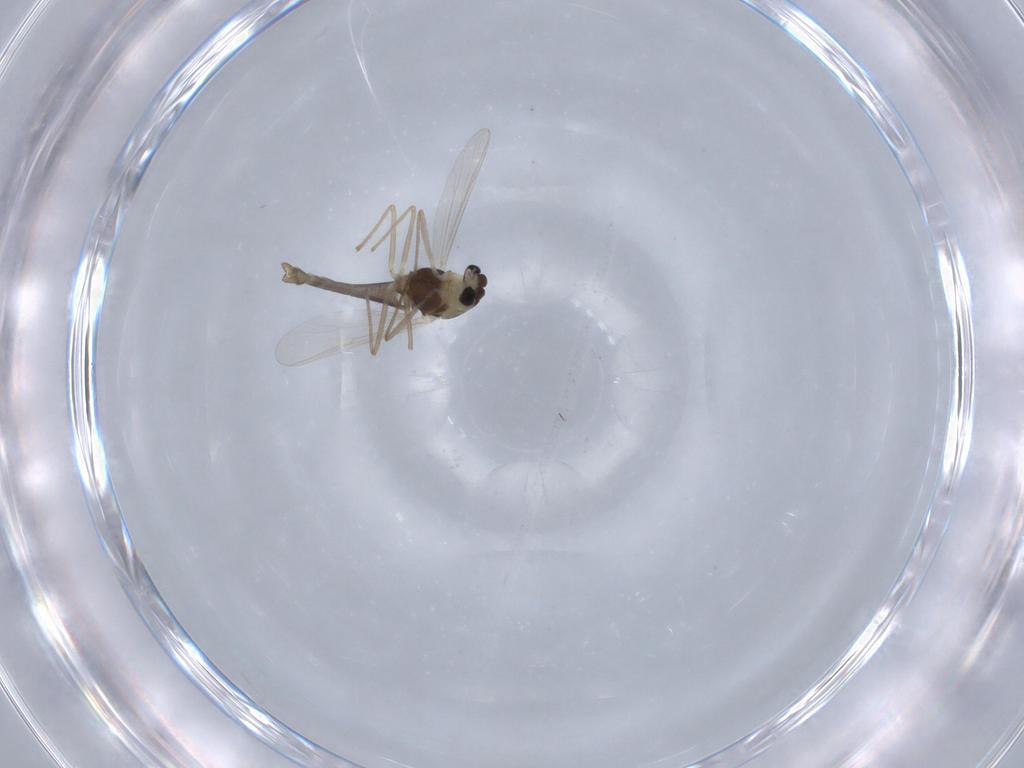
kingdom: Animalia
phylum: Arthropoda
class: Insecta
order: Diptera
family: Chironomidae
